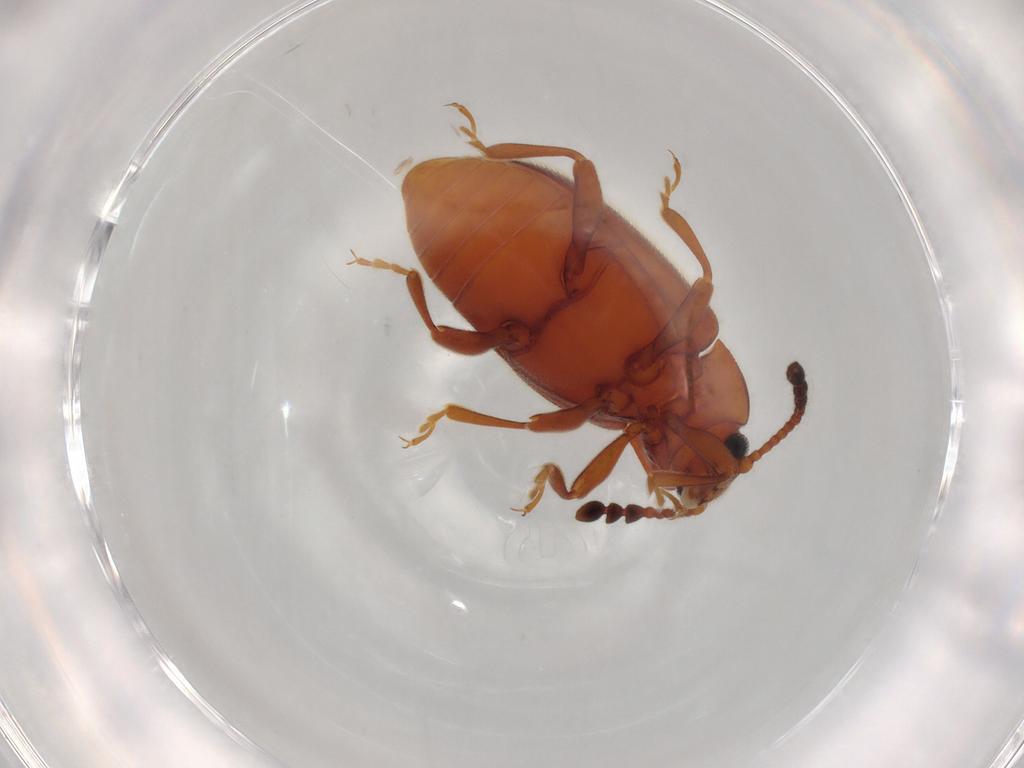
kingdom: Animalia
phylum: Arthropoda
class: Insecta
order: Coleoptera
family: Endomychidae
